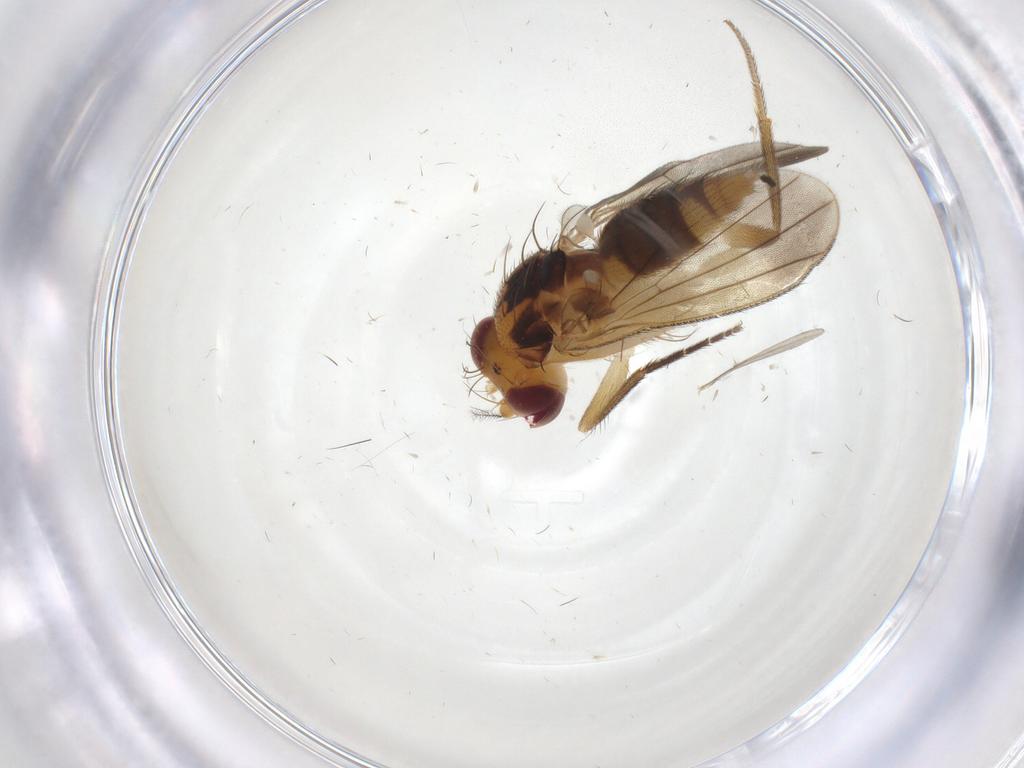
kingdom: Animalia
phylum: Arthropoda
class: Insecta
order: Diptera
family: Clusiidae
